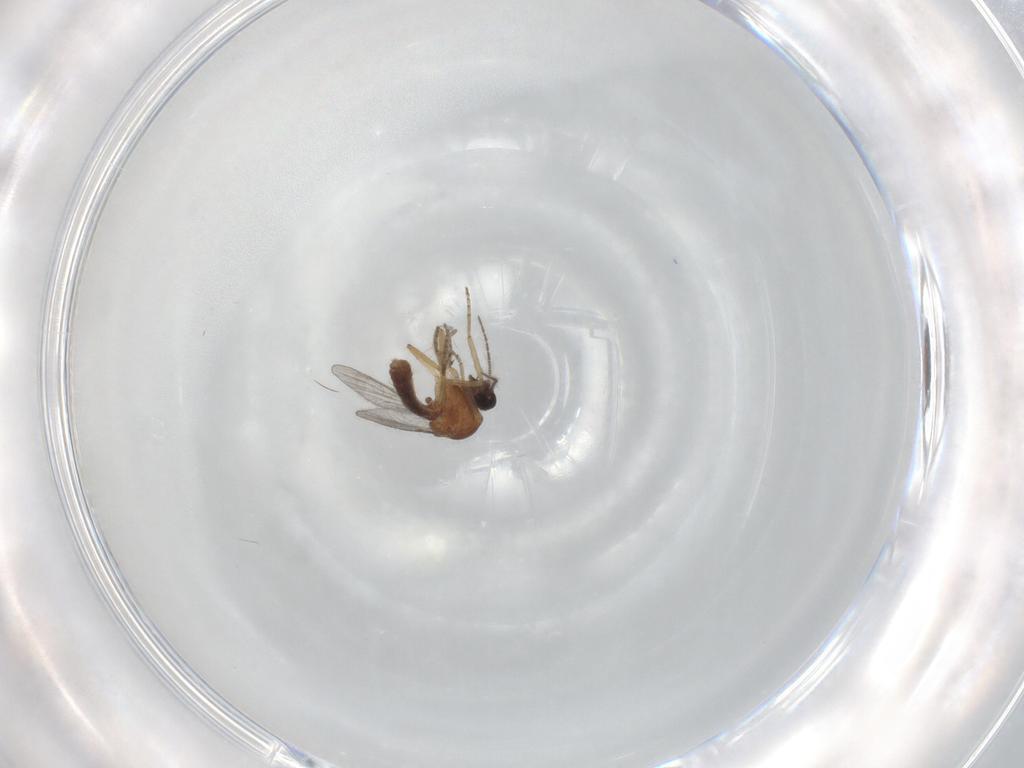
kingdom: Animalia
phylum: Arthropoda
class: Insecta
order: Diptera
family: Ceratopogonidae
